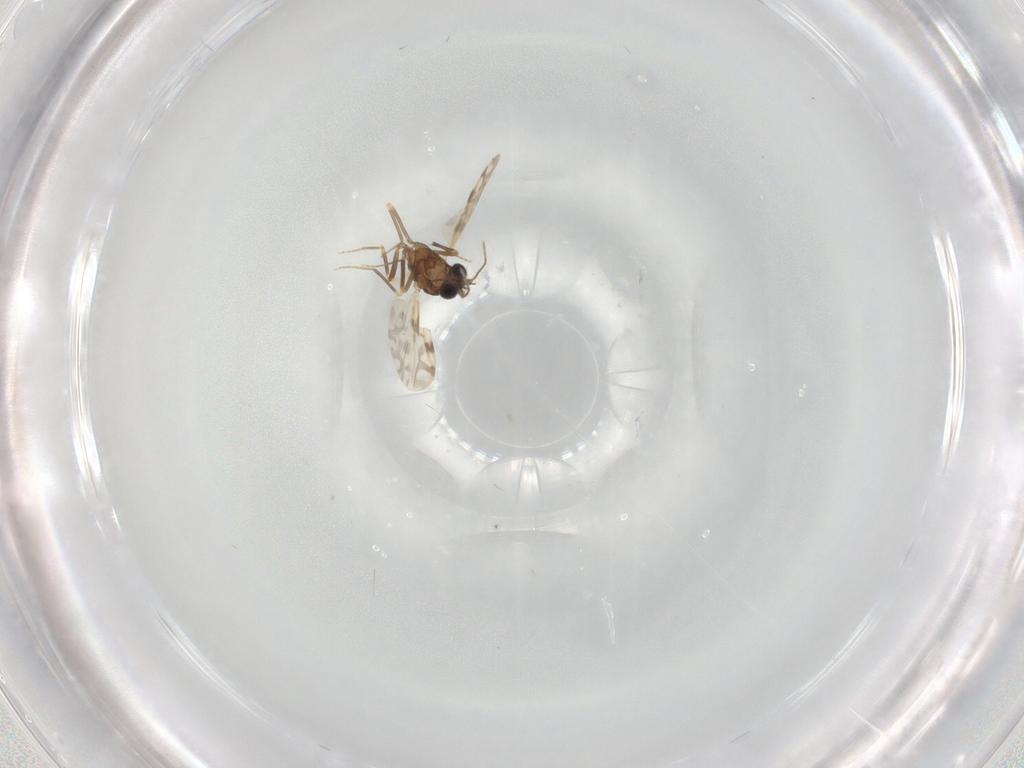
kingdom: Animalia
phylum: Arthropoda
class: Insecta
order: Diptera
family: Ceratopogonidae
